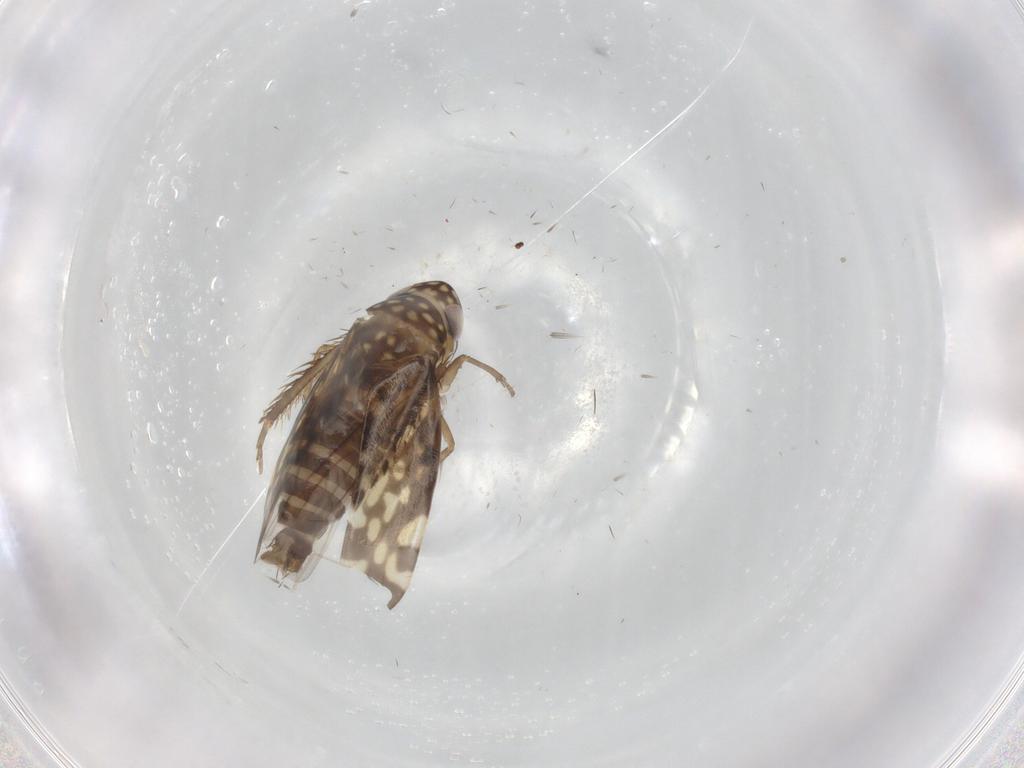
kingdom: Animalia
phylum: Arthropoda
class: Insecta
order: Hemiptera
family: Cicadellidae
